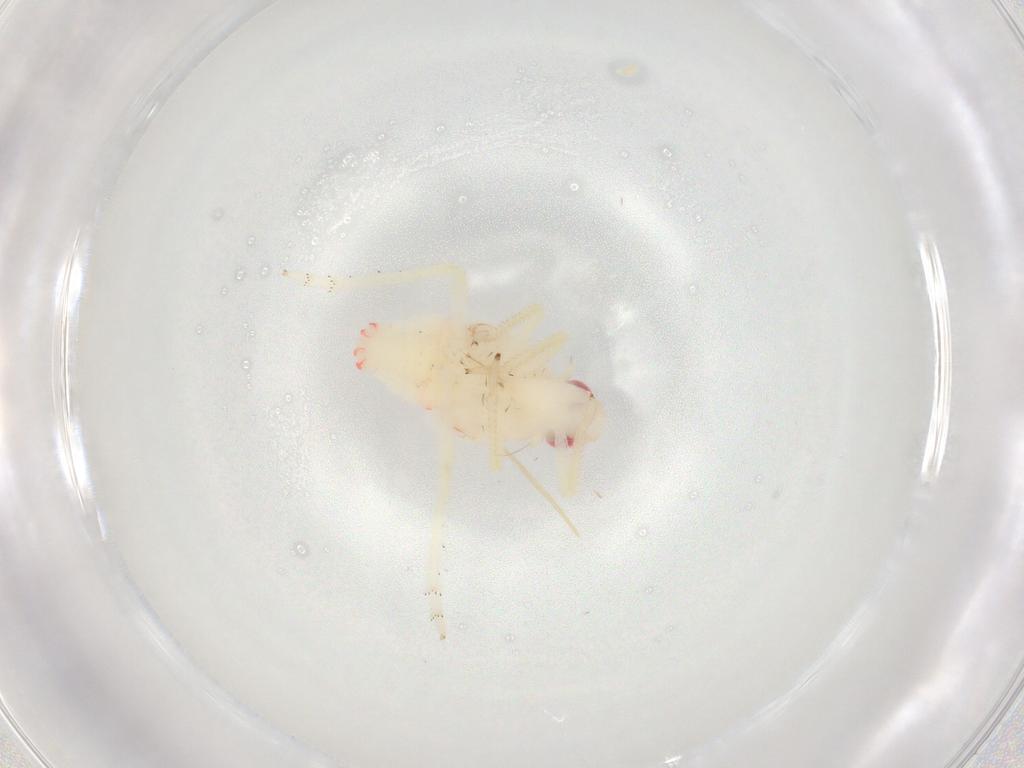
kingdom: Animalia
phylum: Arthropoda
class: Insecta
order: Hemiptera
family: Tropiduchidae
